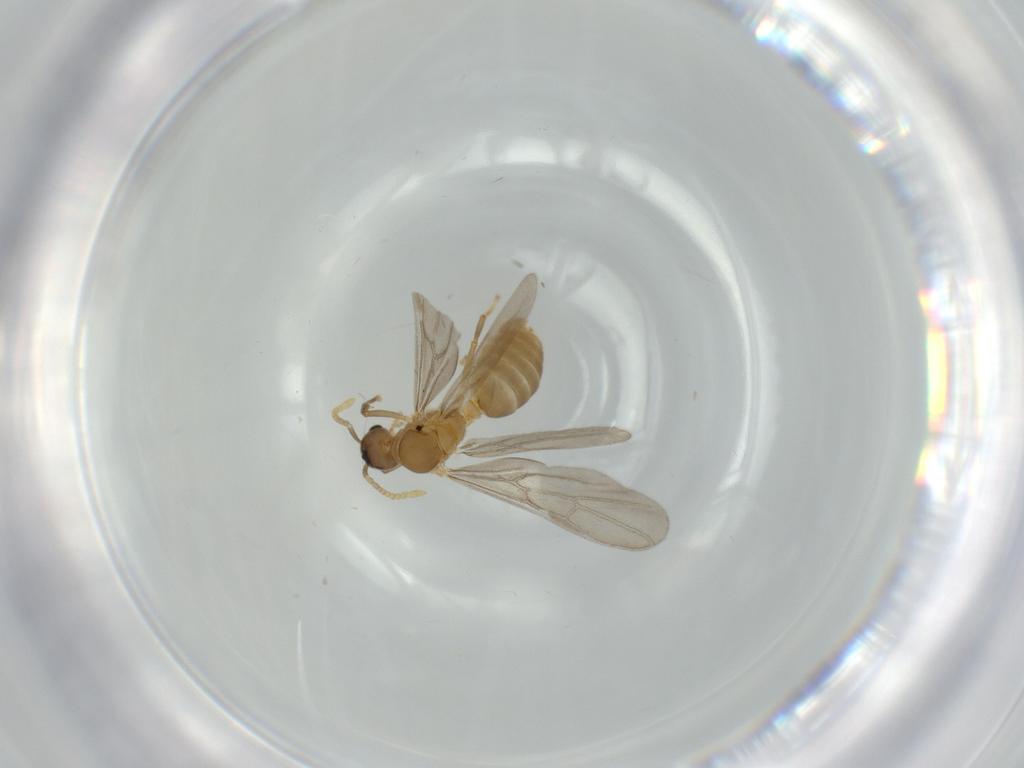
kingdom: Animalia
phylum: Arthropoda
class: Insecta
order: Hymenoptera
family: Formicidae
